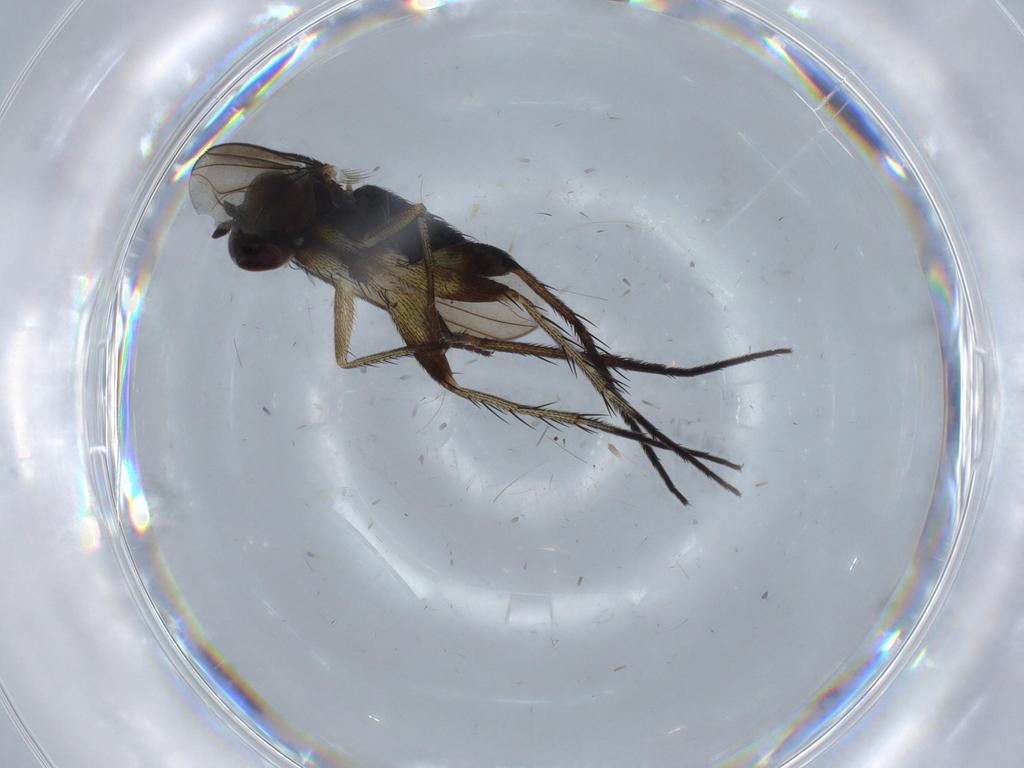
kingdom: Animalia
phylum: Arthropoda
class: Insecta
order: Diptera
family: Dolichopodidae
